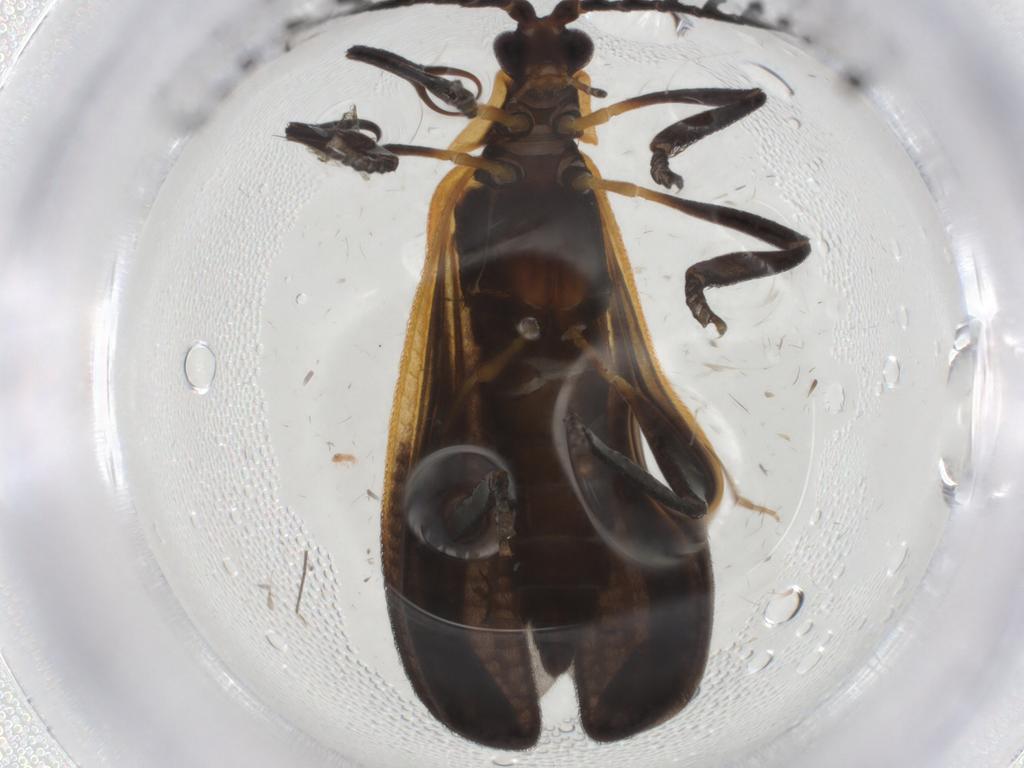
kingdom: Animalia
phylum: Arthropoda
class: Insecta
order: Coleoptera
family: Lycidae
